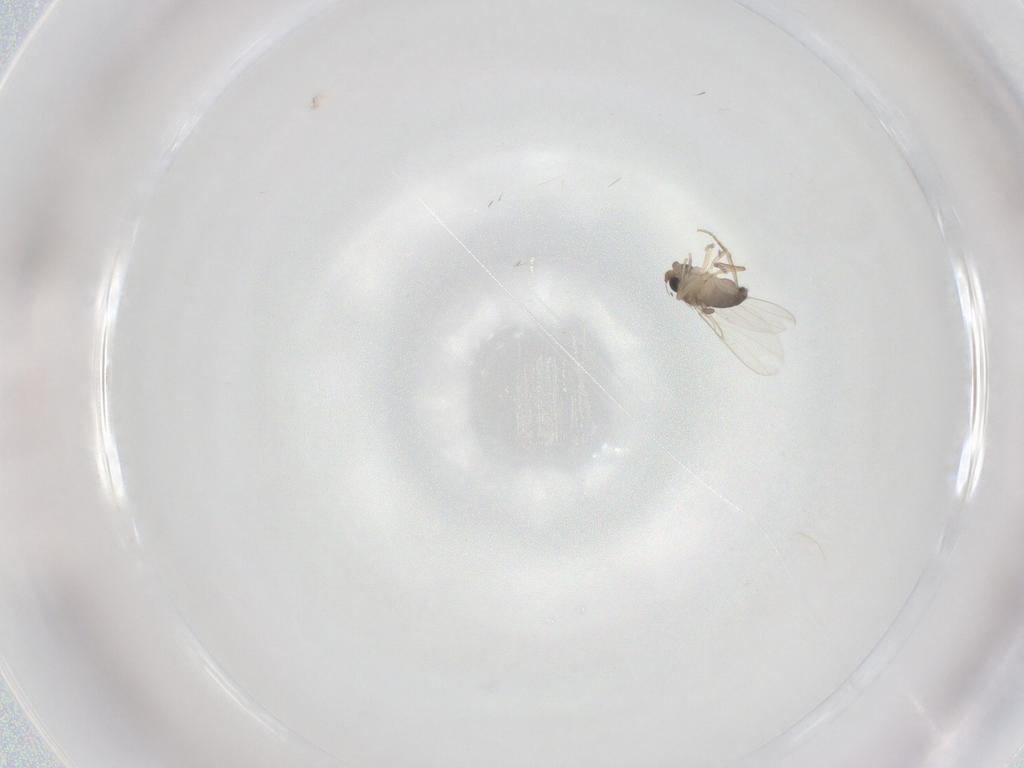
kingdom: Animalia
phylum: Arthropoda
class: Insecta
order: Diptera
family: Phoridae
